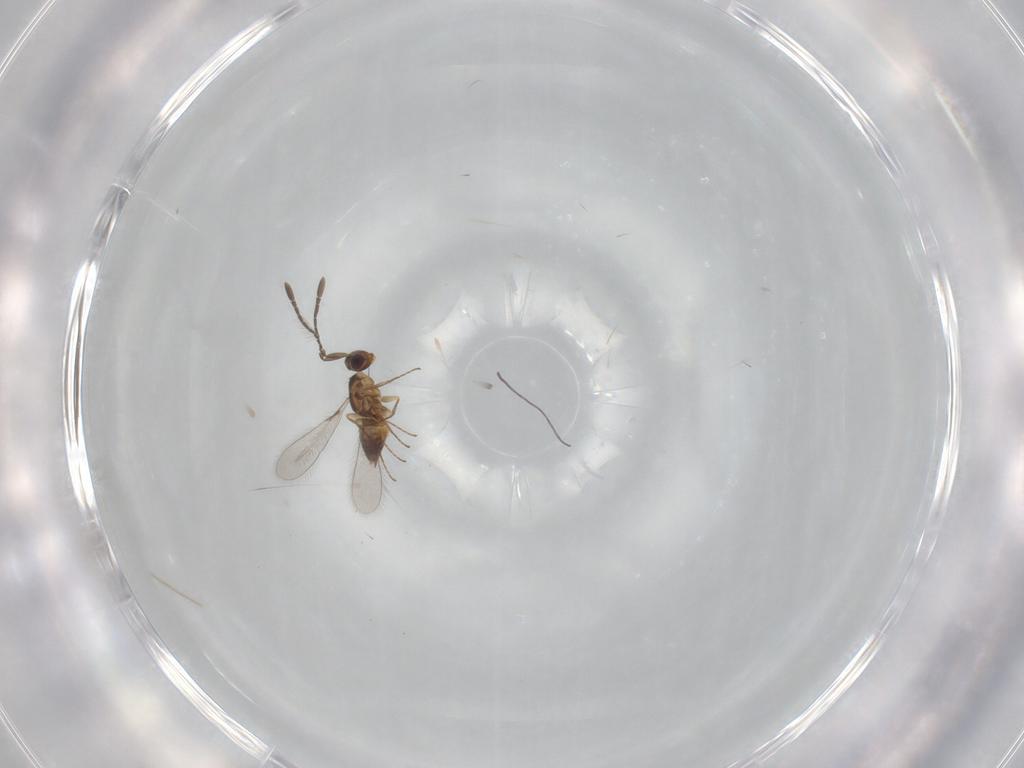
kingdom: Animalia
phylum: Arthropoda
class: Insecta
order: Hymenoptera
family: Mymaridae
